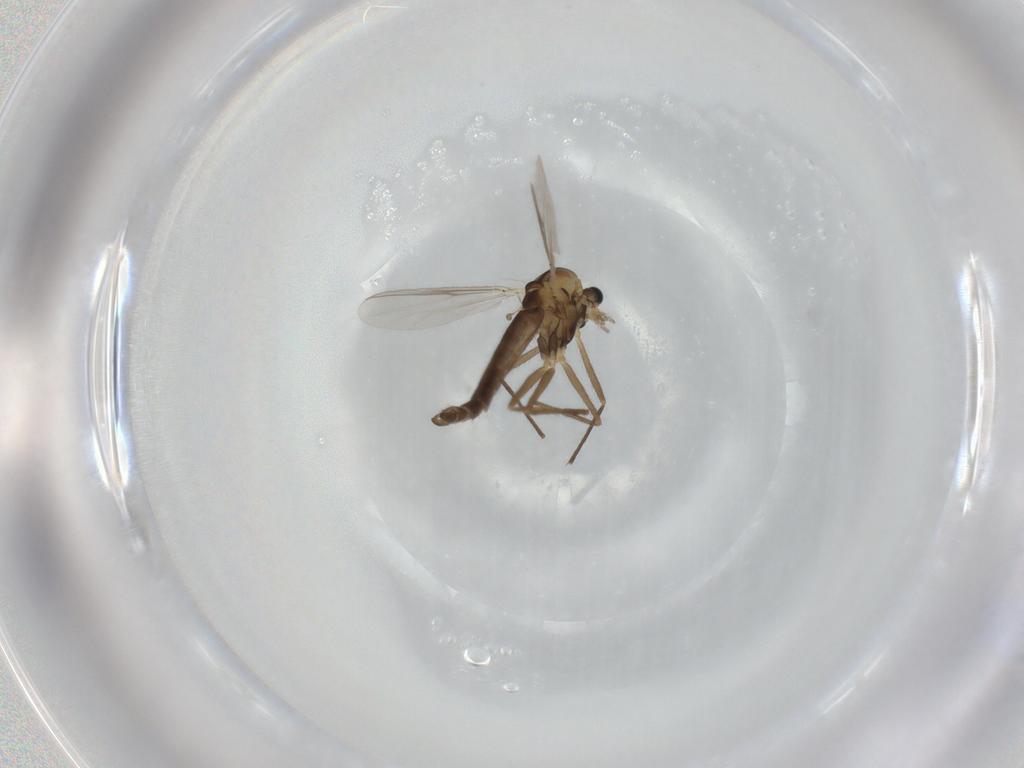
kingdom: Animalia
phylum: Arthropoda
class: Insecta
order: Diptera
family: Chironomidae
